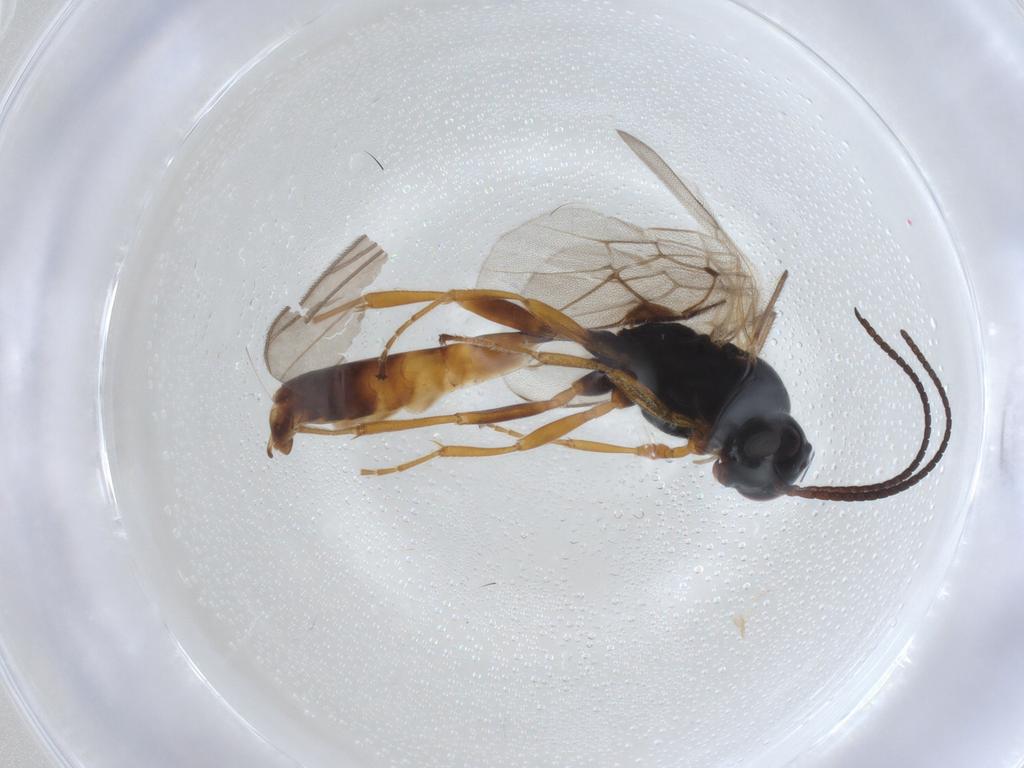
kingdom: Animalia
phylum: Arthropoda
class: Insecta
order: Hymenoptera
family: Ichneumonidae
